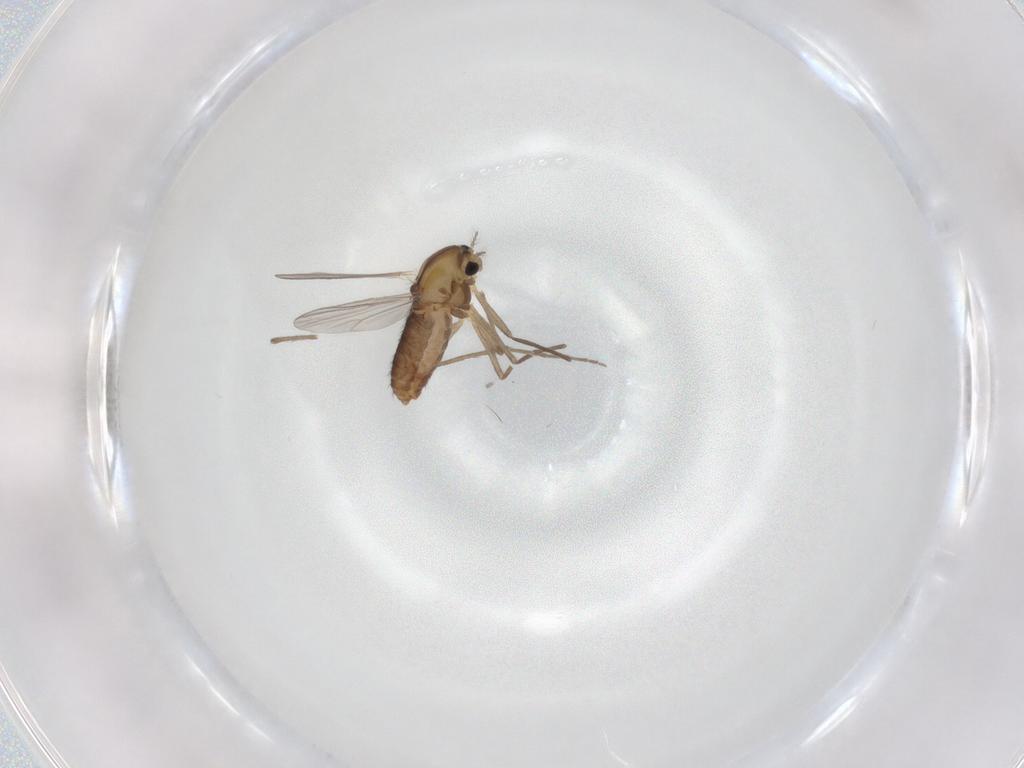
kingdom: Animalia
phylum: Arthropoda
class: Insecta
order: Diptera
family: Chironomidae
